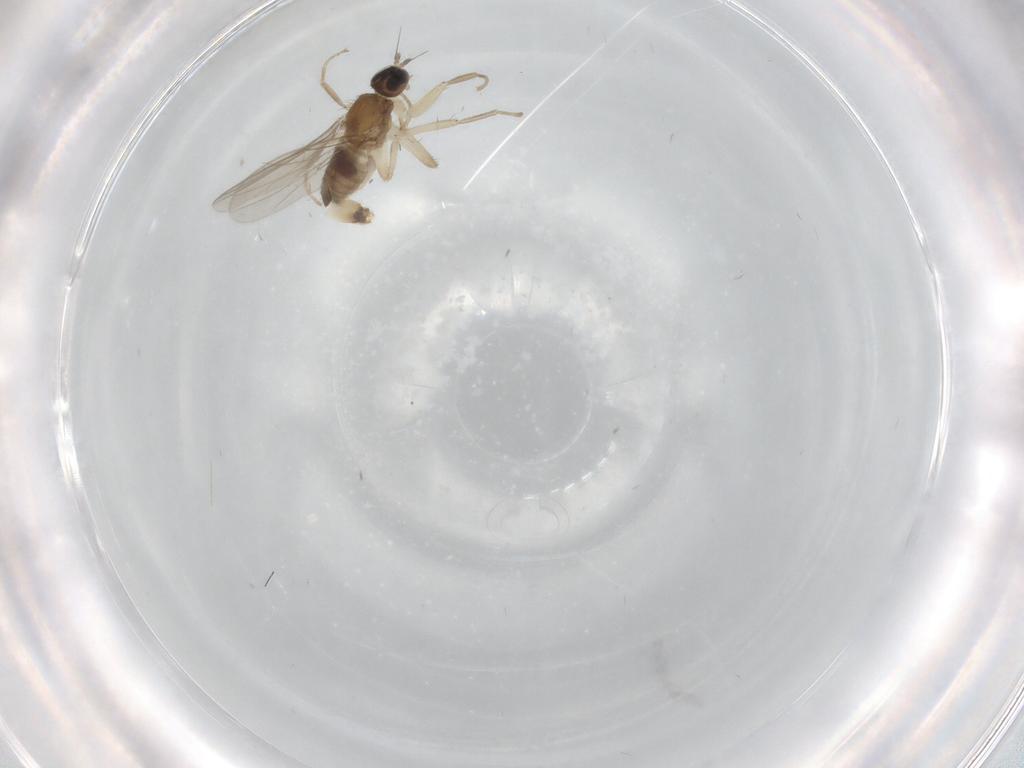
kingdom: Animalia
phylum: Arthropoda
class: Insecta
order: Diptera
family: Hybotidae
